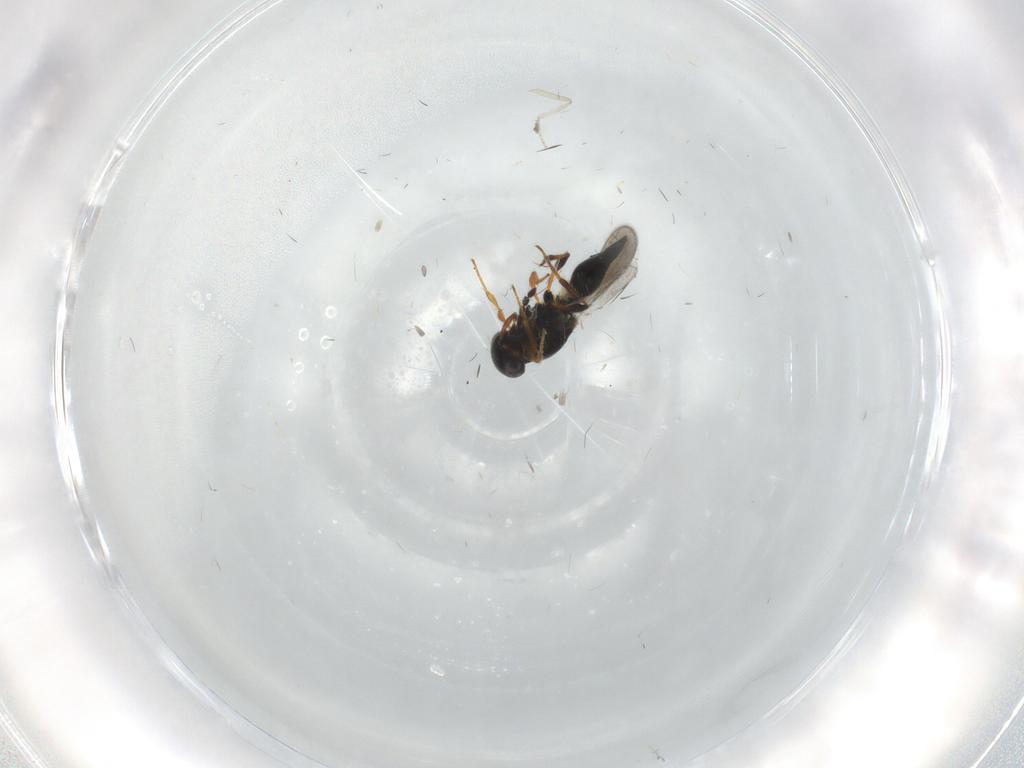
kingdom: Animalia
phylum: Arthropoda
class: Insecta
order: Hymenoptera
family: Platygastridae
